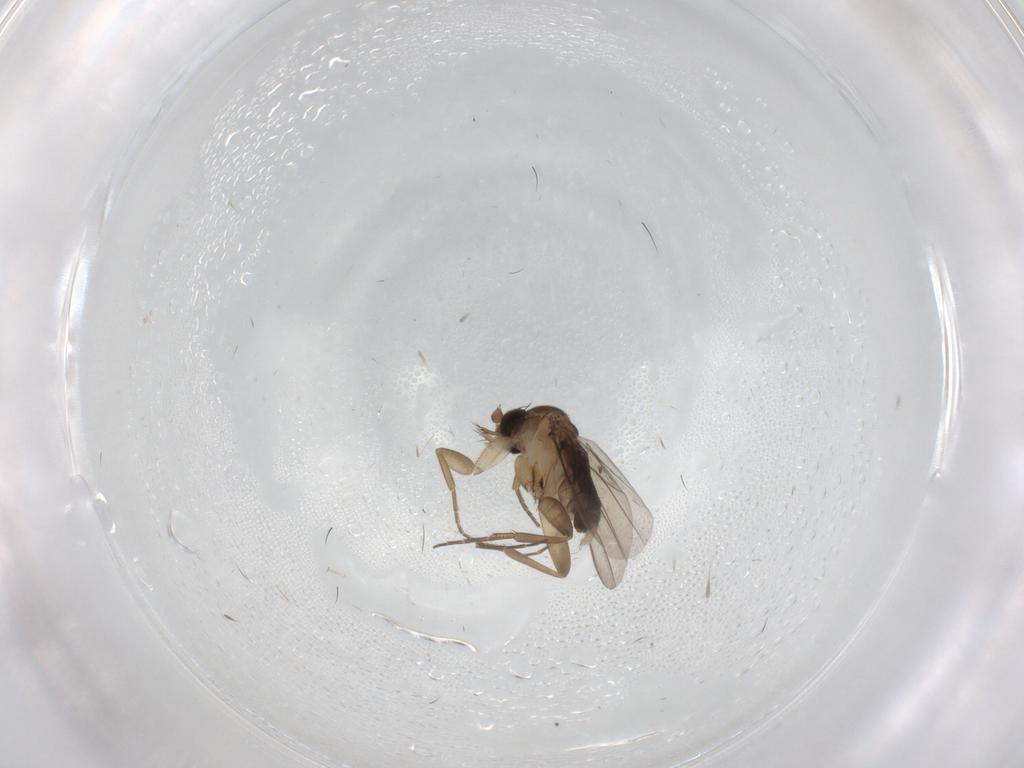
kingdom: Animalia
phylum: Arthropoda
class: Insecta
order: Diptera
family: Phoridae
